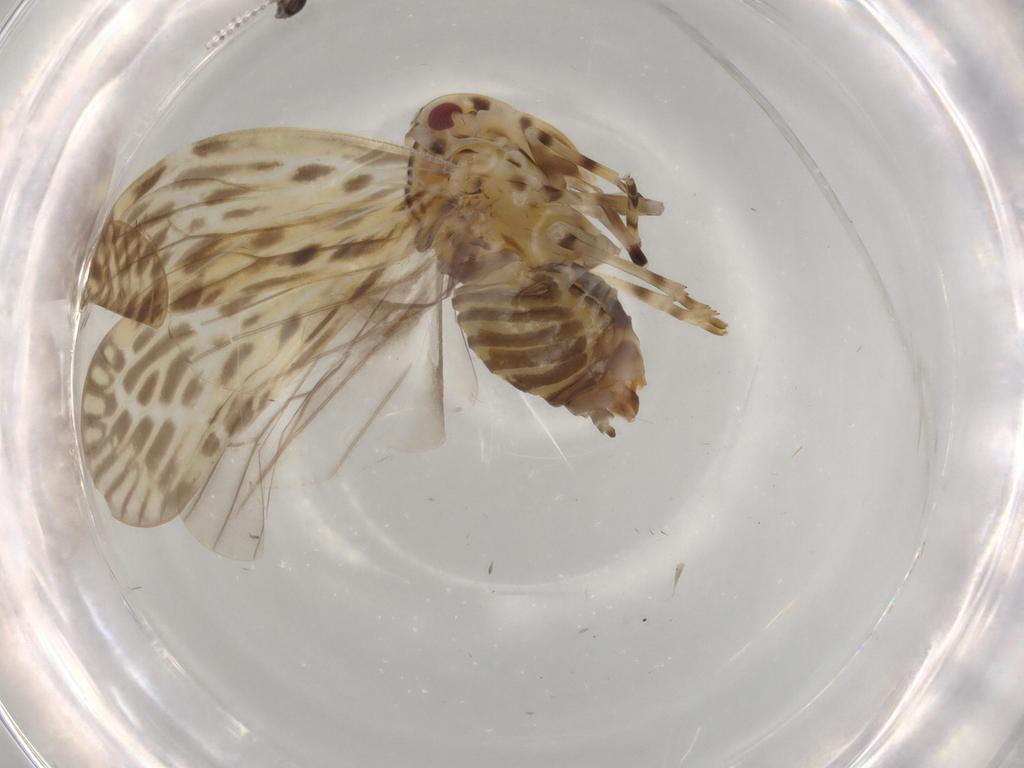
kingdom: Animalia
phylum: Arthropoda
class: Insecta
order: Hemiptera
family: Derbidae
